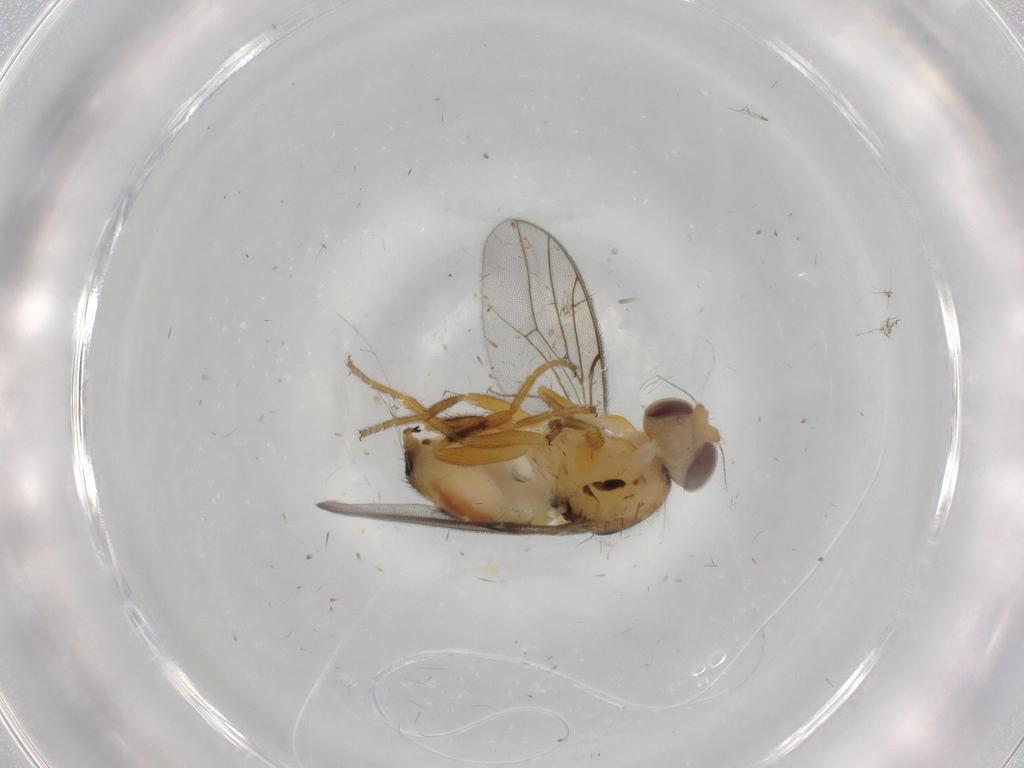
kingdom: Animalia
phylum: Arthropoda
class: Insecta
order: Diptera
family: Chloropidae
